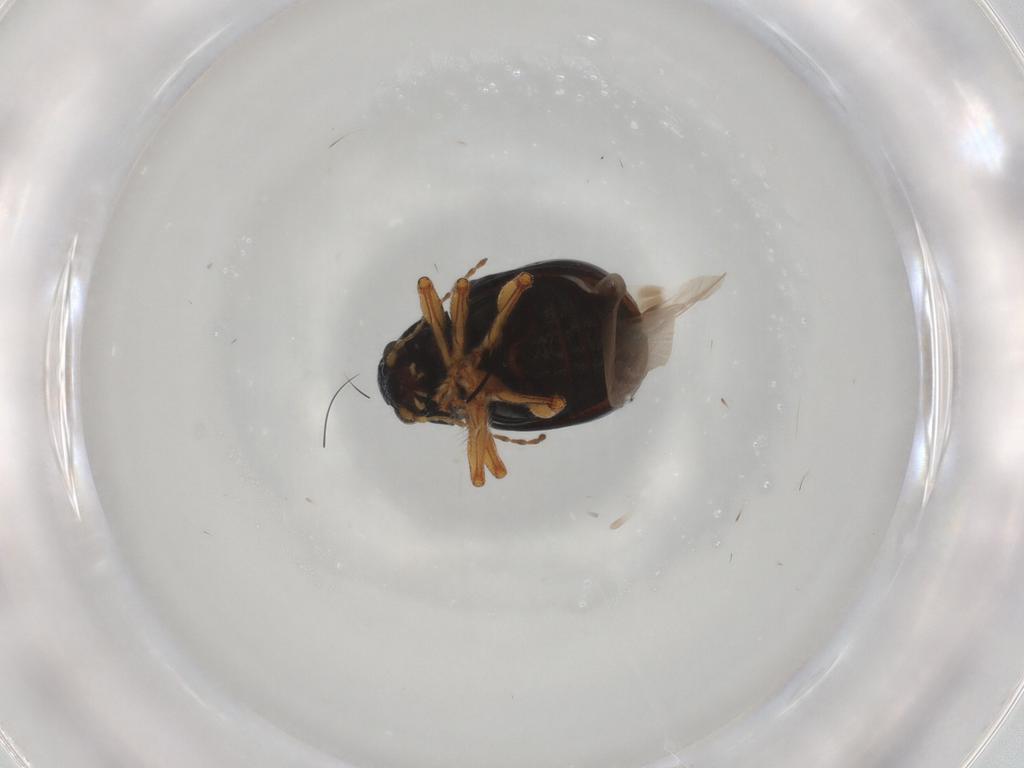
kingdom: Animalia
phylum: Arthropoda
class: Insecta
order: Coleoptera
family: Chrysomelidae
